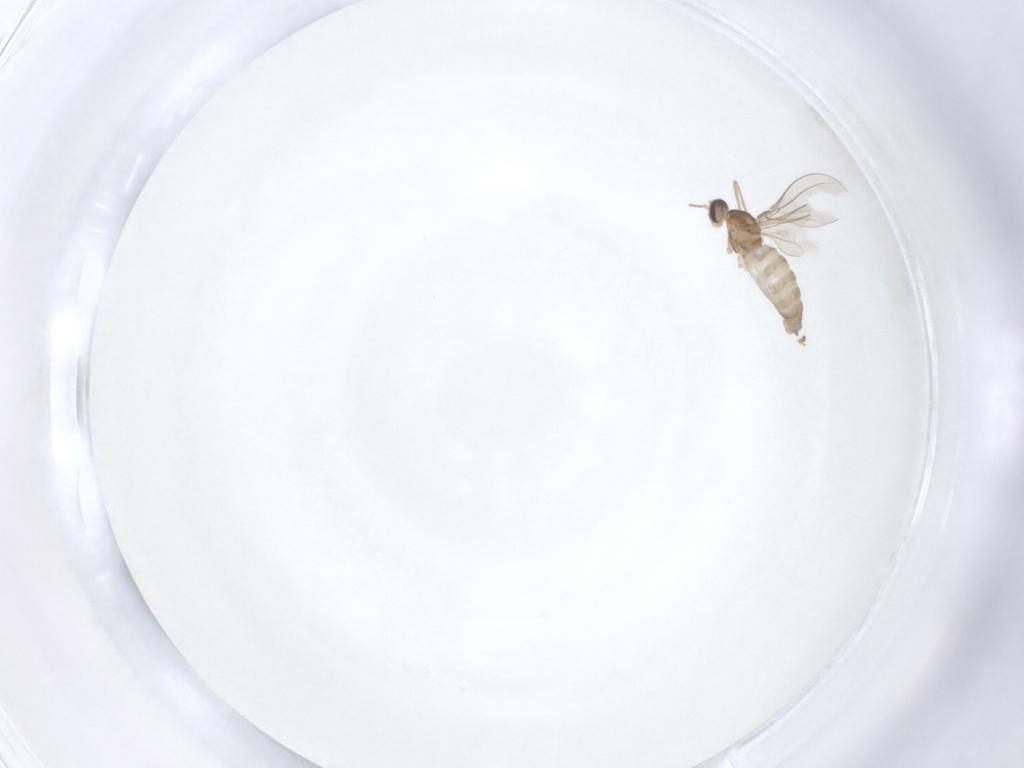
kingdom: Animalia
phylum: Arthropoda
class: Insecta
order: Diptera
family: Cecidomyiidae
